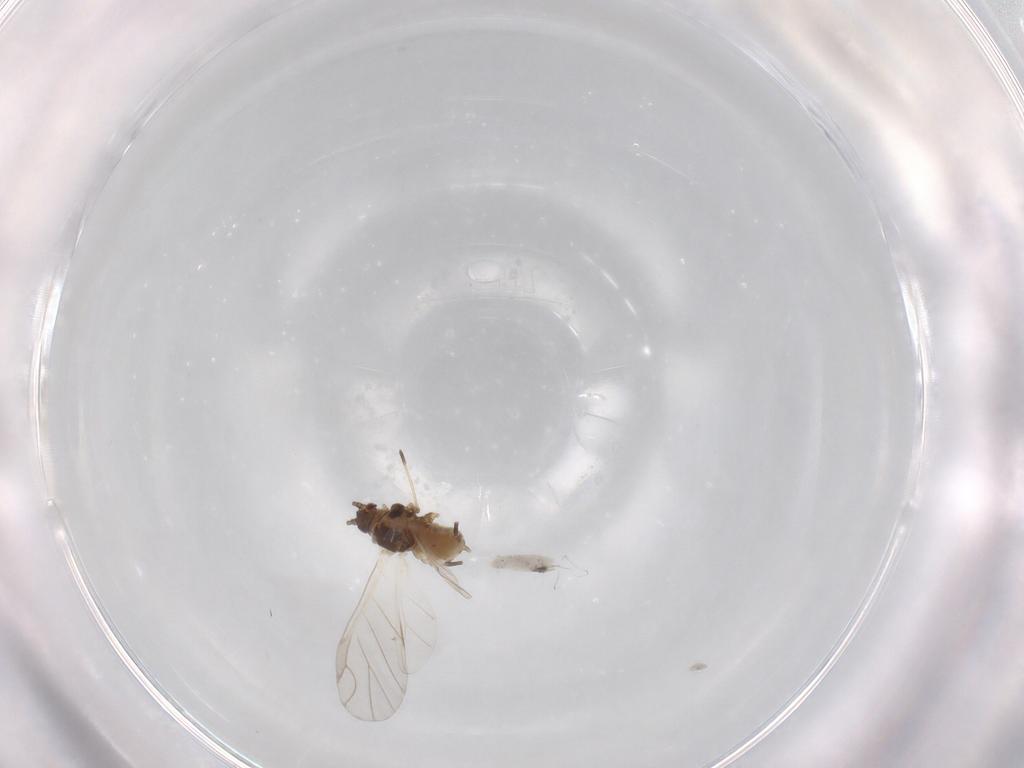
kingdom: Animalia
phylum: Arthropoda
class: Insecta
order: Hemiptera
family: Aphididae
